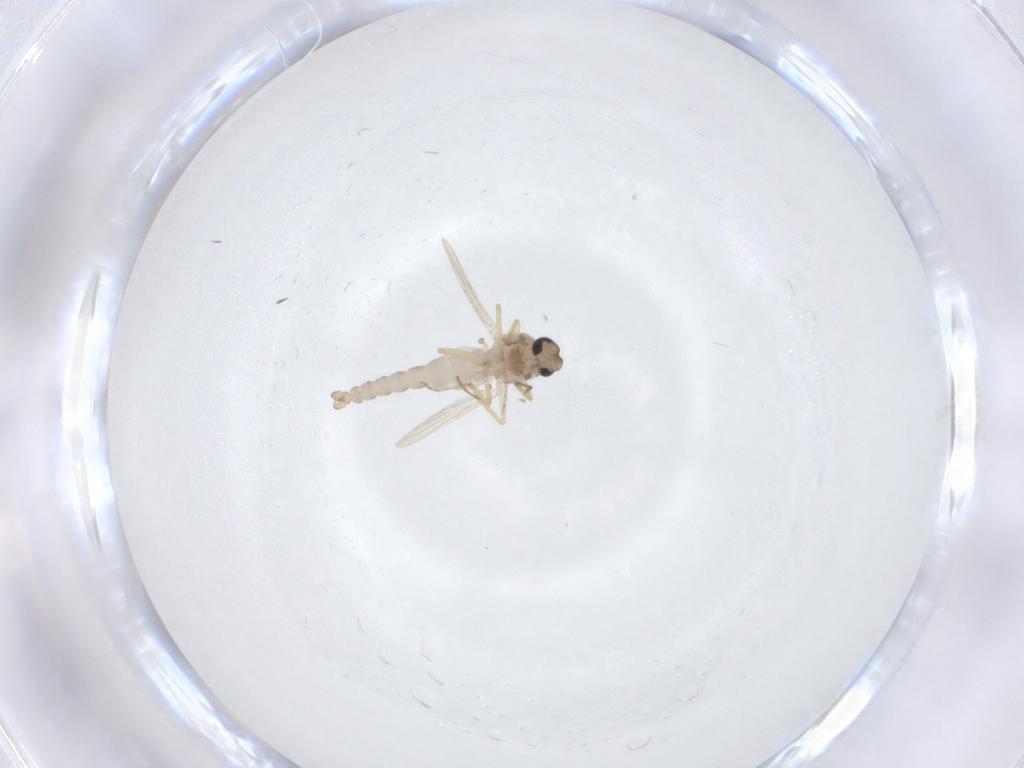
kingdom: Animalia
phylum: Arthropoda
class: Insecta
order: Diptera
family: Ceratopogonidae
